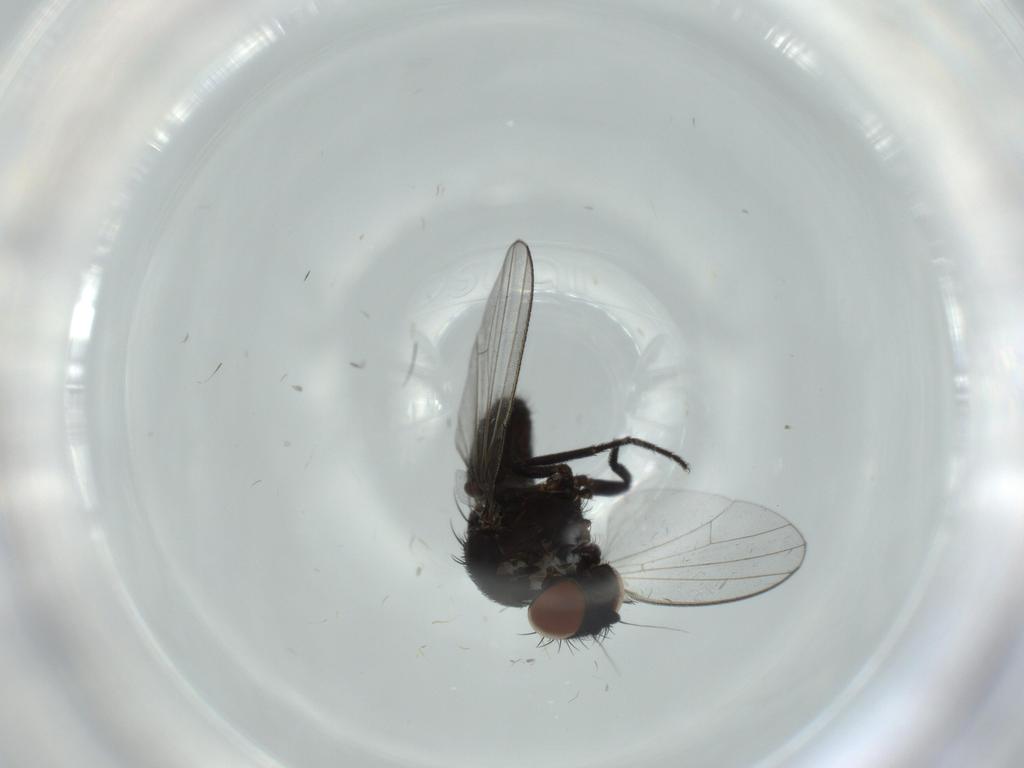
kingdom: Animalia
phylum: Arthropoda
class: Insecta
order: Diptera
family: Milichiidae
